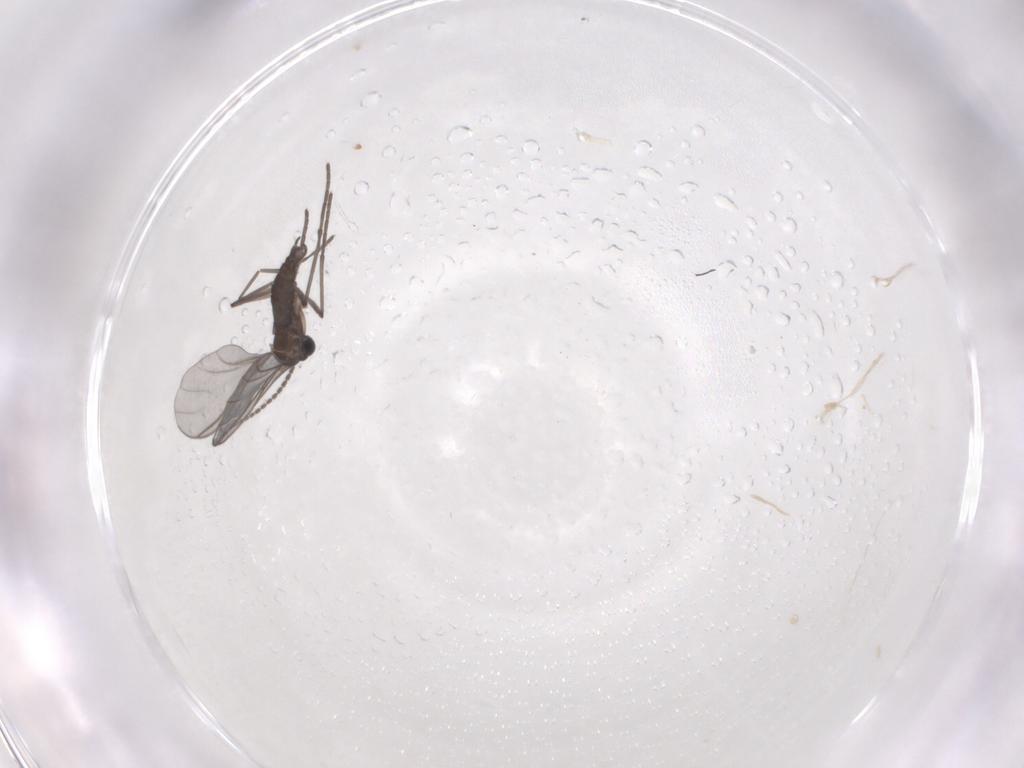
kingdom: Animalia
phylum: Arthropoda
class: Insecta
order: Diptera
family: Sciaridae
